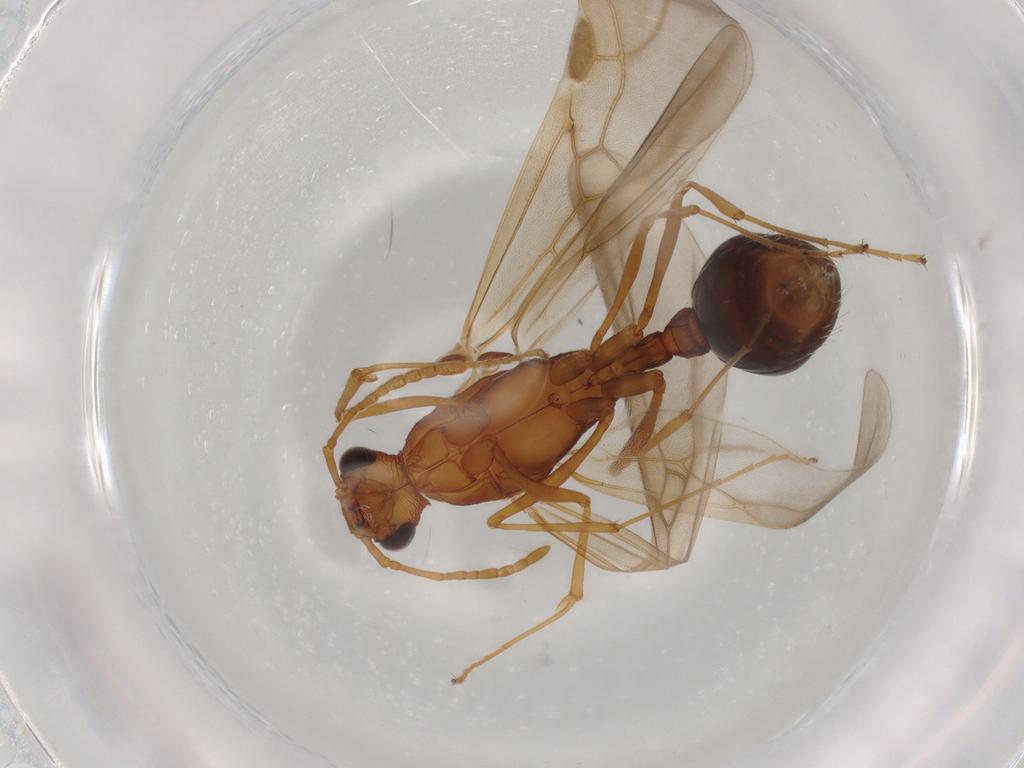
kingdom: Animalia
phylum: Arthropoda
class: Insecta
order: Hymenoptera
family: Formicidae
